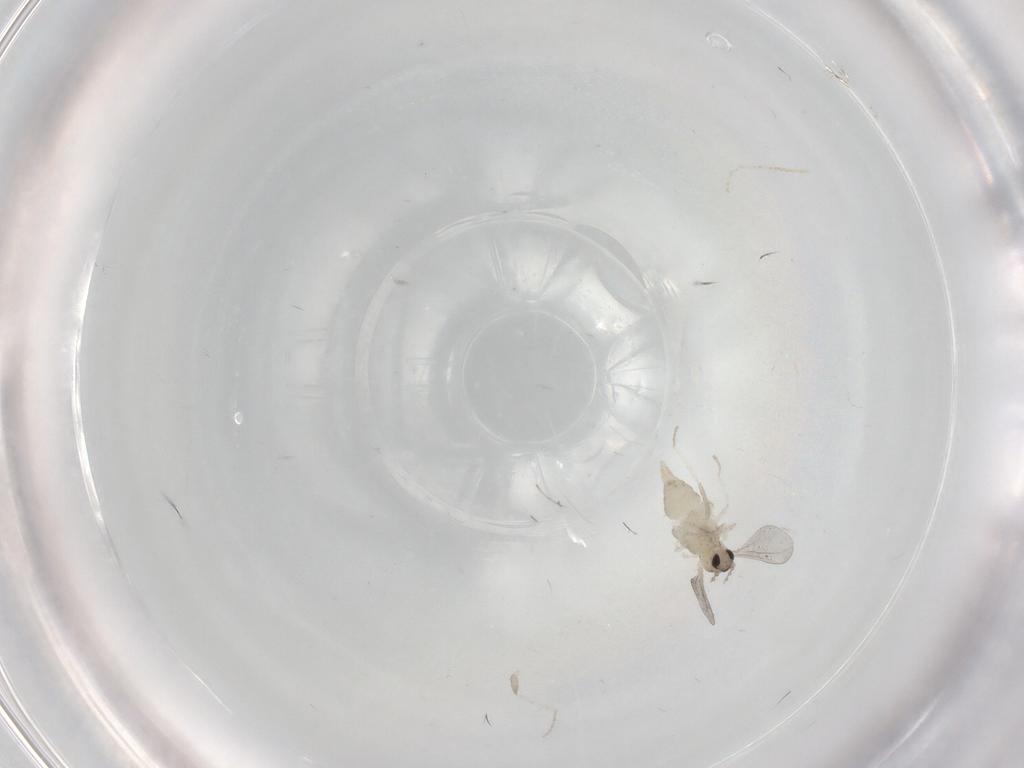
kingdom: Animalia
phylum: Arthropoda
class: Insecta
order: Diptera
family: Cecidomyiidae
